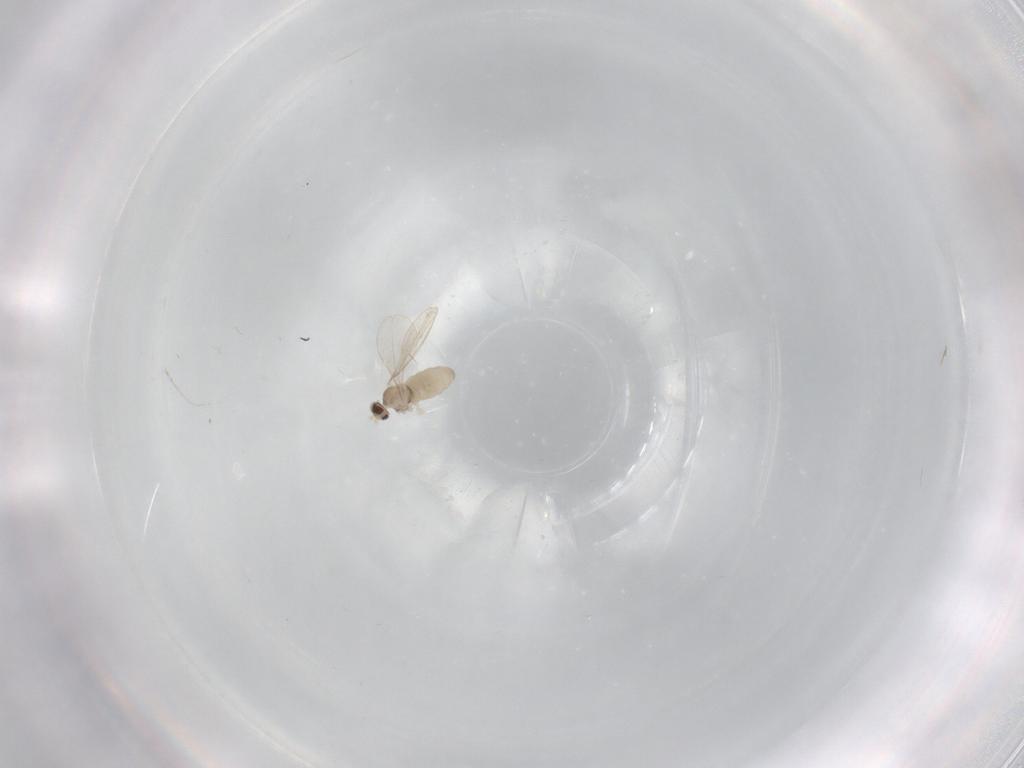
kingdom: Animalia
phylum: Arthropoda
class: Insecta
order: Diptera
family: Cecidomyiidae
